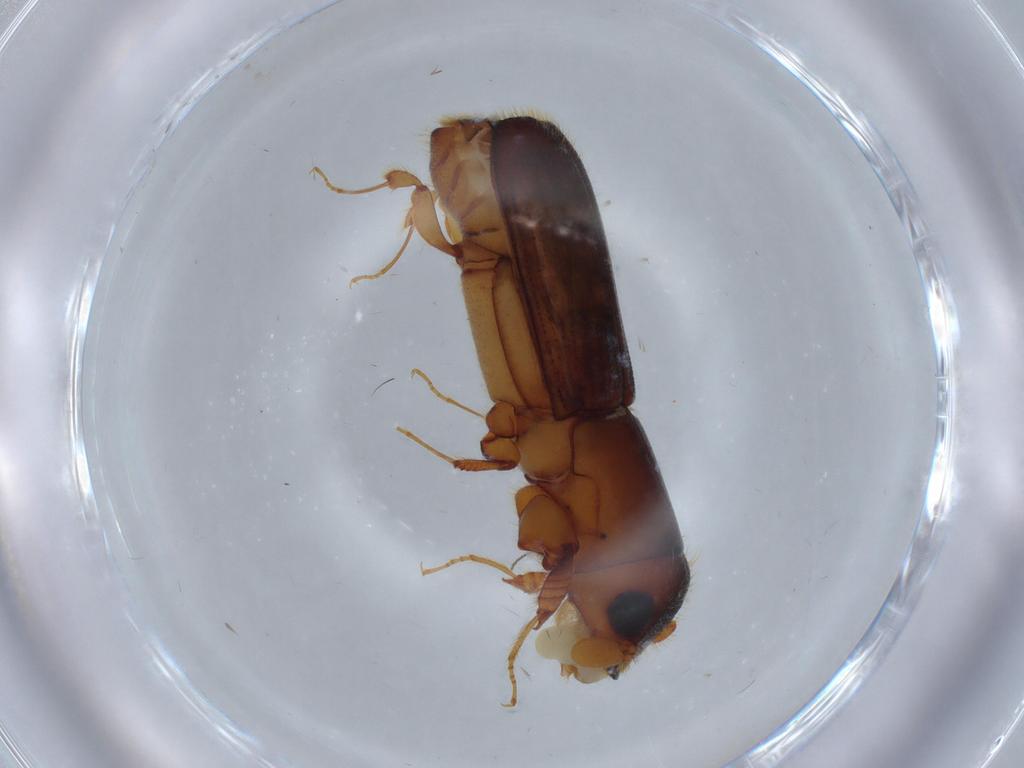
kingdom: Animalia
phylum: Arthropoda
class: Insecta
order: Coleoptera
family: Curculionidae
